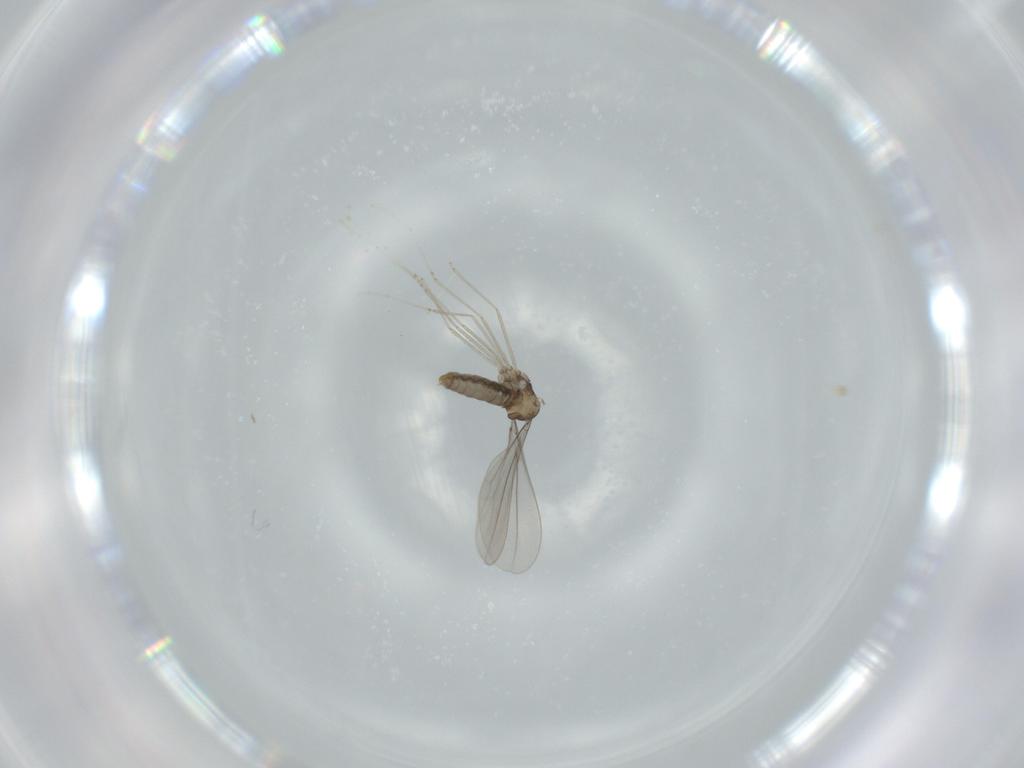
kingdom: Animalia
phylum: Arthropoda
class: Insecta
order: Diptera
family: Cecidomyiidae
